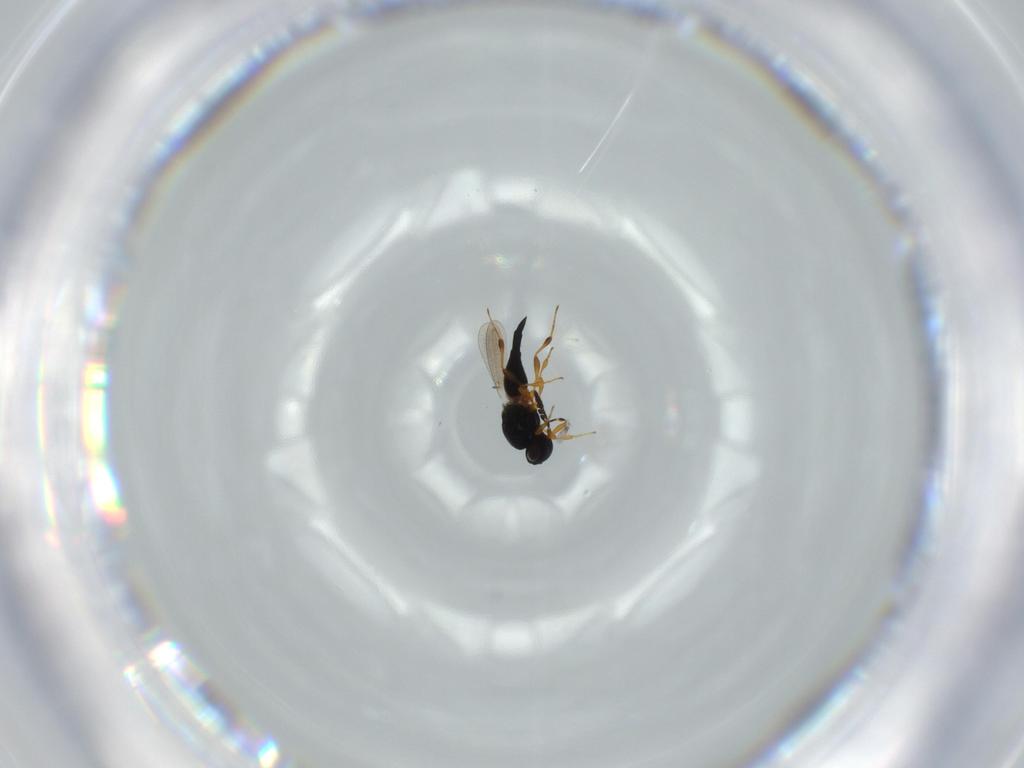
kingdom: Animalia
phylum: Arthropoda
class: Insecta
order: Hymenoptera
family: Platygastridae
